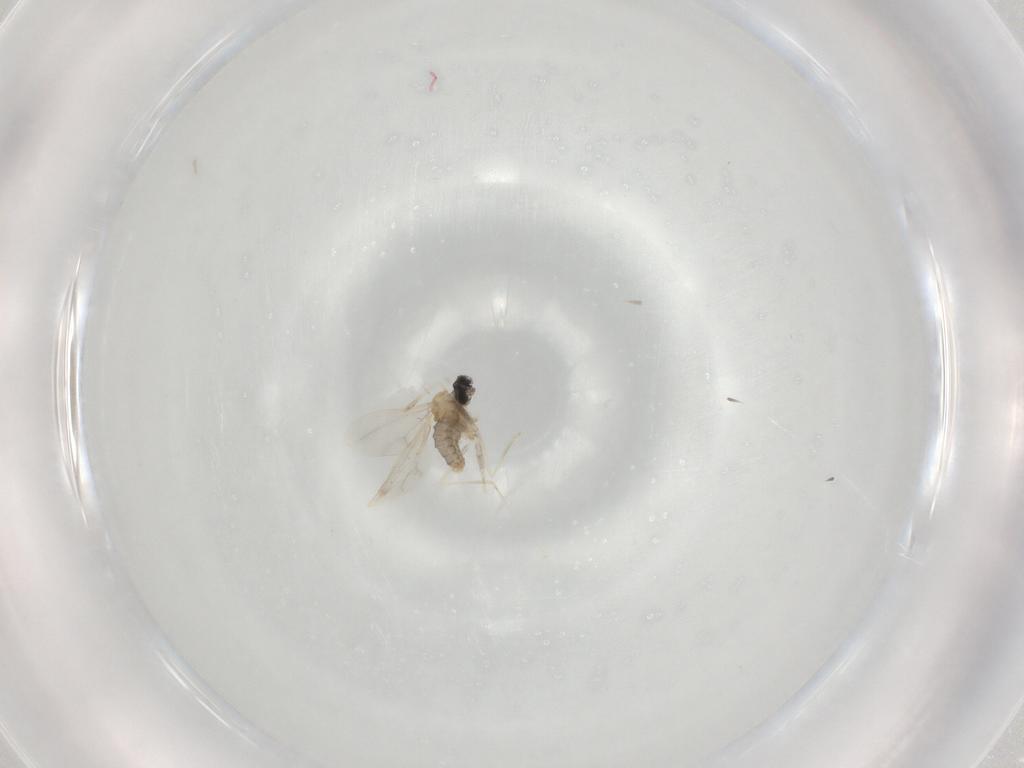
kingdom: Animalia
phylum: Arthropoda
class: Insecta
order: Diptera
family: Cecidomyiidae
